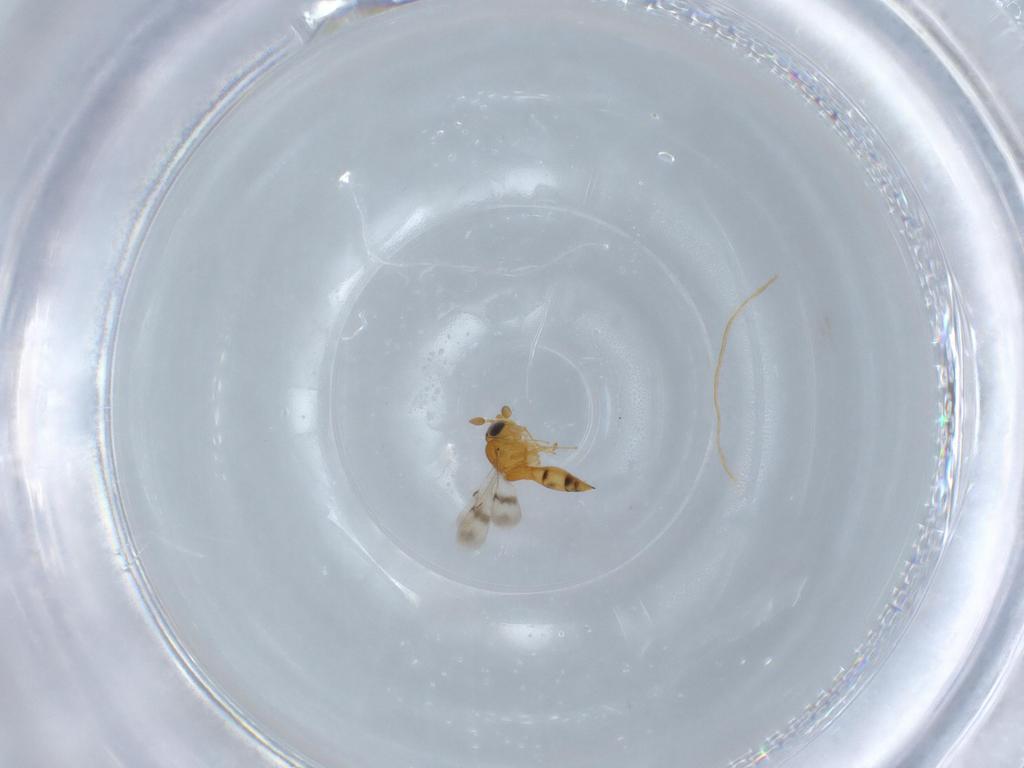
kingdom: Animalia
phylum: Arthropoda
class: Insecta
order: Hymenoptera
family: Scelionidae
